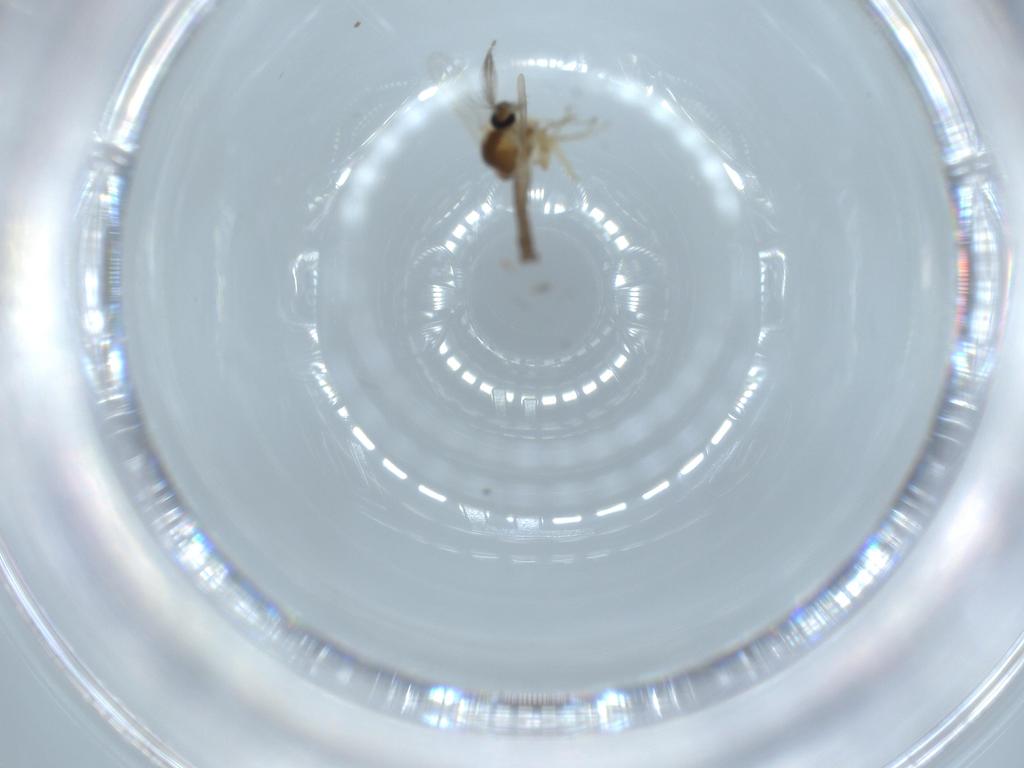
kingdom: Animalia
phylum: Arthropoda
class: Insecta
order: Diptera
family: Ceratopogonidae
